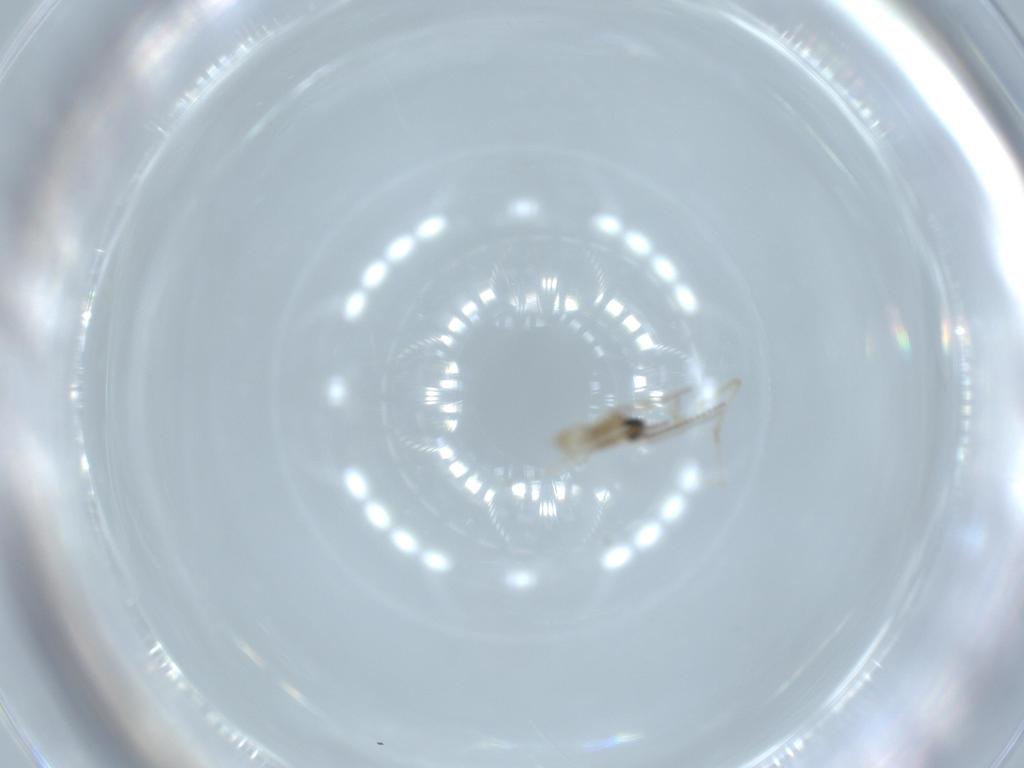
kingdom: Animalia
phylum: Arthropoda
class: Insecta
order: Diptera
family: Cecidomyiidae
